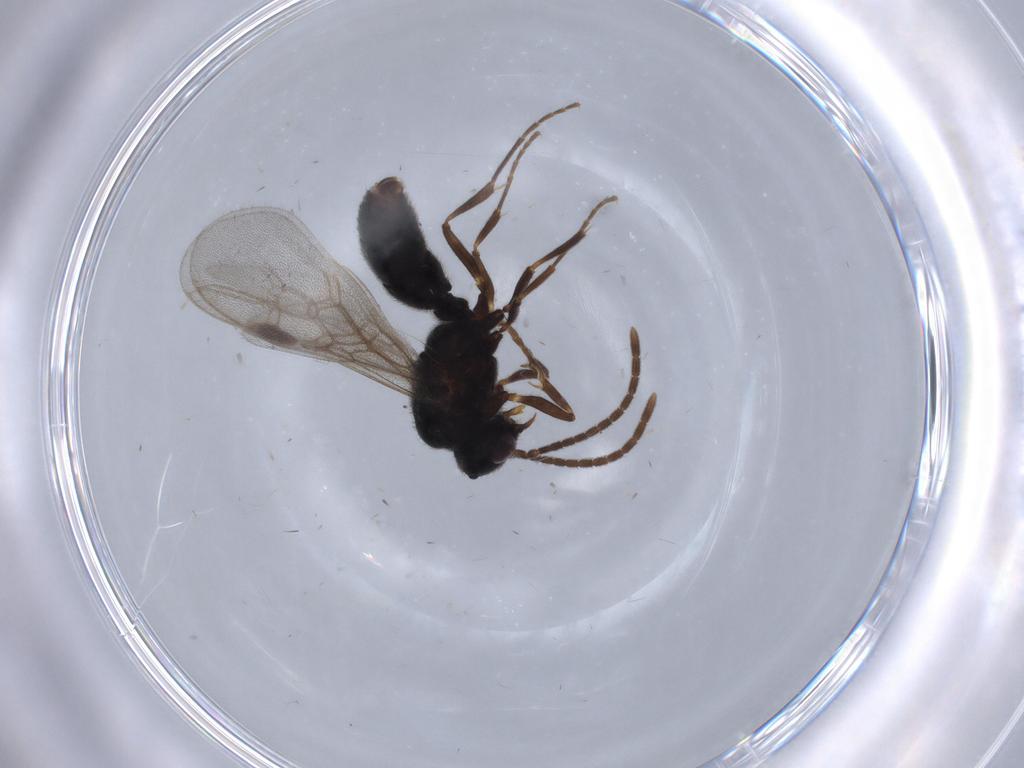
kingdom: Animalia
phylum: Arthropoda
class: Insecta
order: Hymenoptera
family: Formicidae
